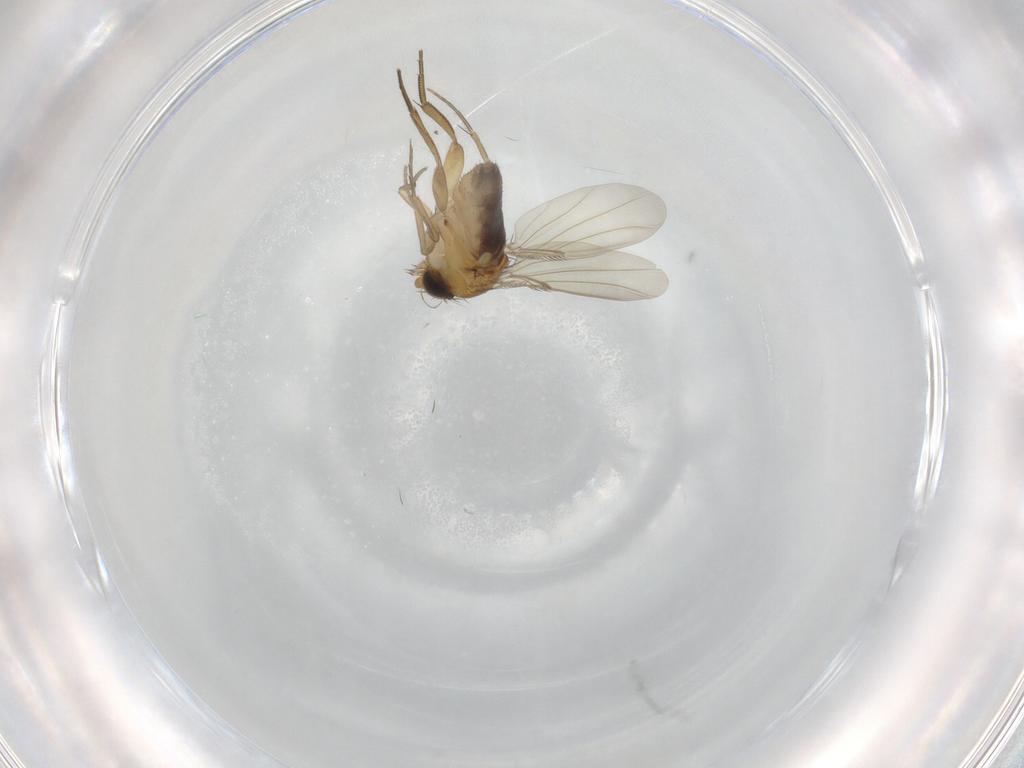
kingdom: Animalia
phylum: Arthropoda
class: Insecta
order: Diptera
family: Phoridae
